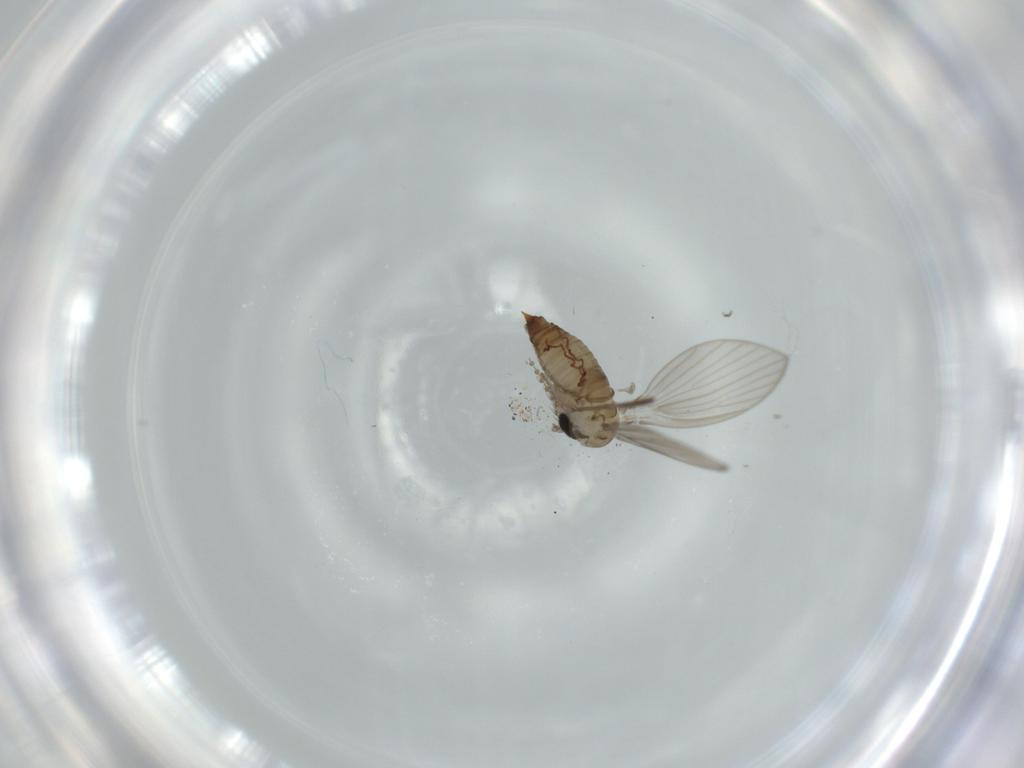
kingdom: Animalia
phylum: Arthropoda
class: Insecta
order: Diptera
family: Psychodidae
